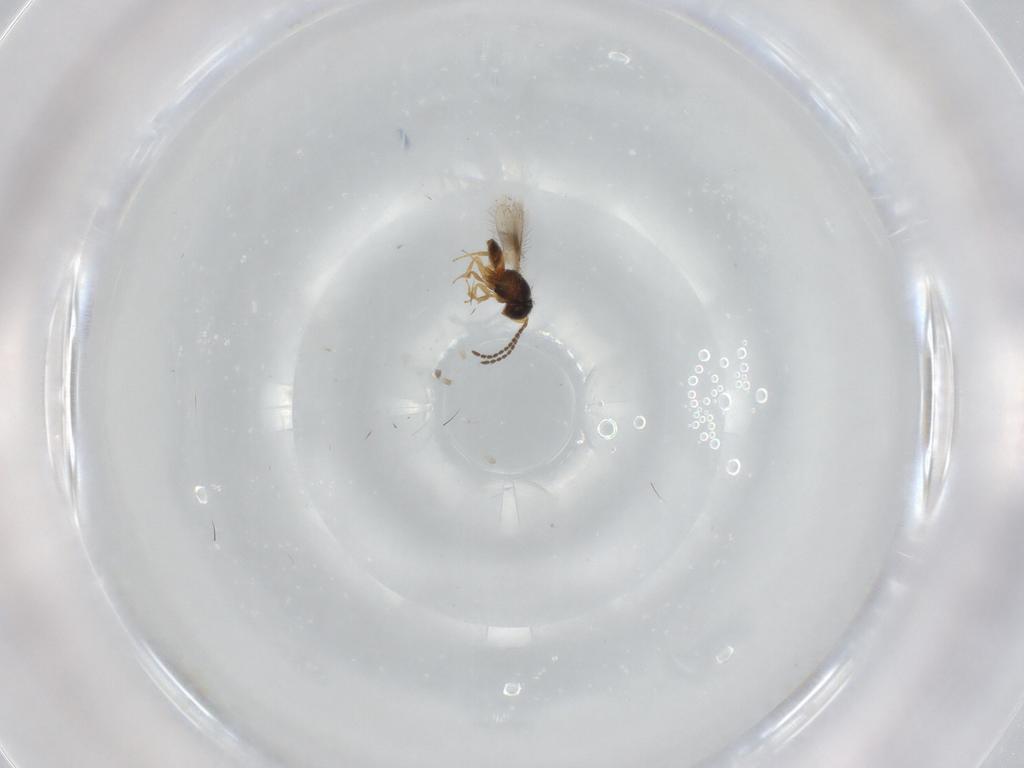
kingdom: Animalia
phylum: Arthropoda
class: Insecta
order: Hymenoptera
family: Scelionidae
